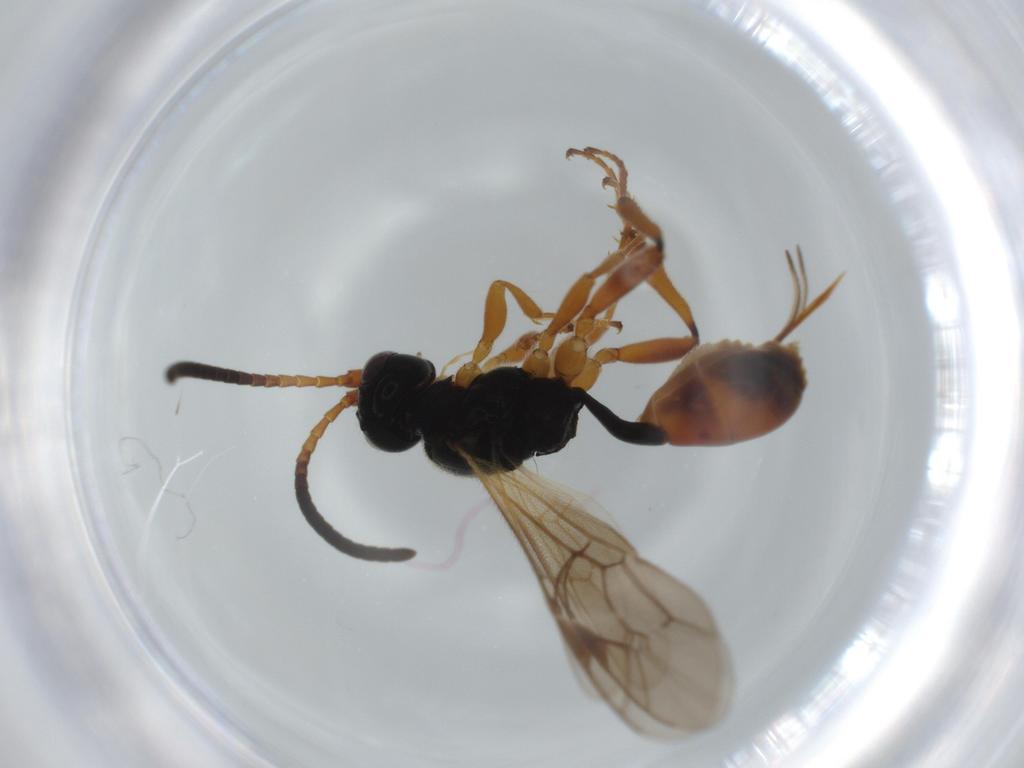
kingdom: Animalia
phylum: Arthropoda
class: Insecta
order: Hymenoptera
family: Ichneumonidae
